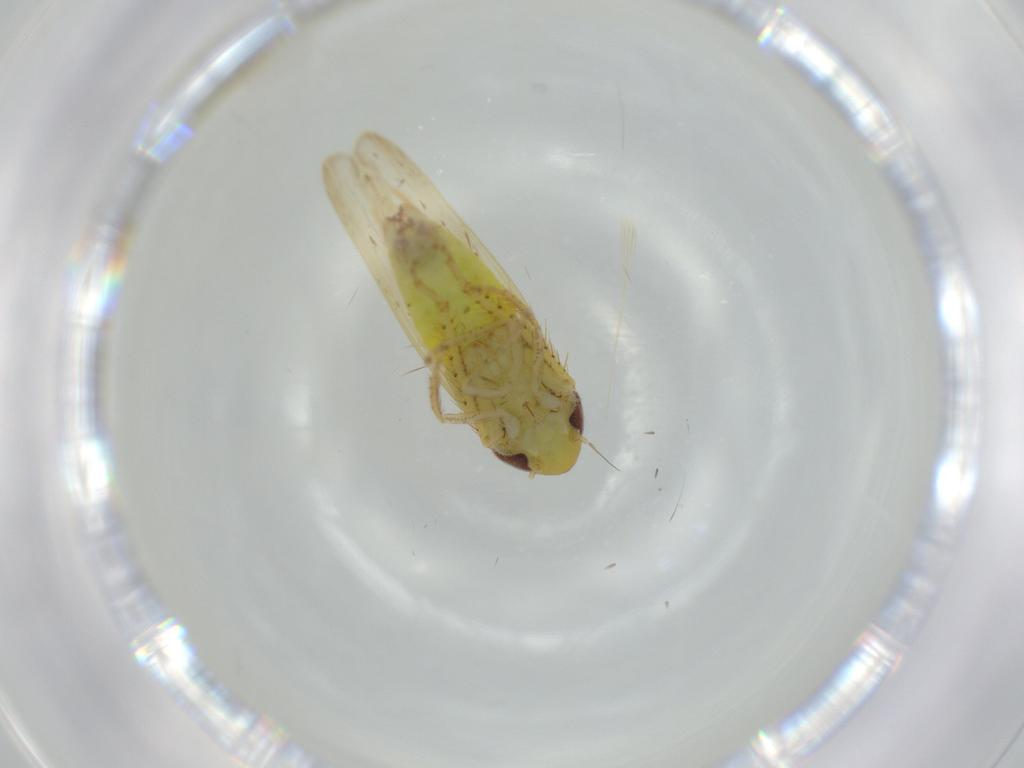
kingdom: Animalia
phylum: Arthropoda
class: Insecta
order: Hemiptera
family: Cicadellidae
